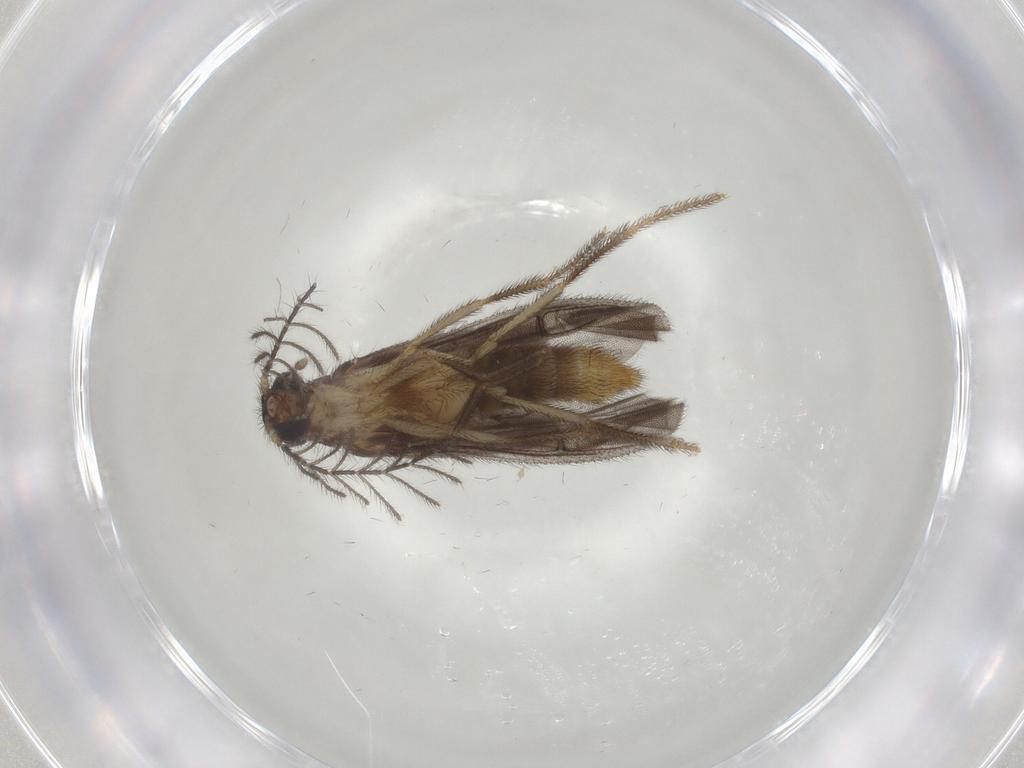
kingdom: Animalia
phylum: Arthropoda
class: Insecta
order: Coleoptera
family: Phengodidae
